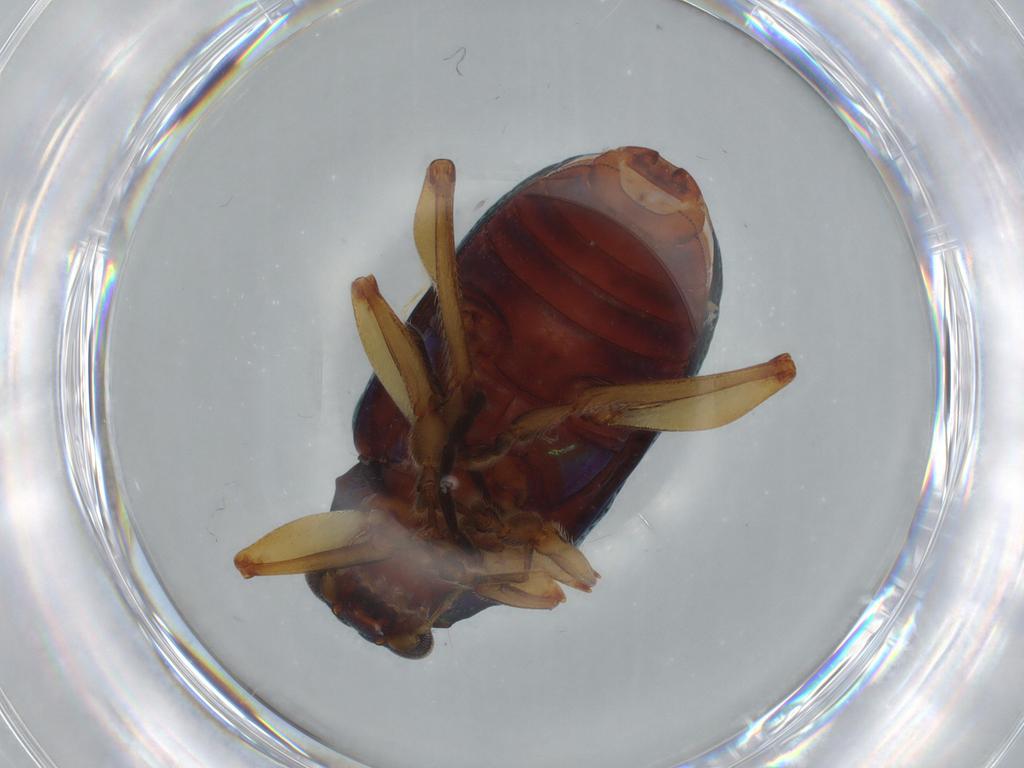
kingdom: Animalia
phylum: Arthropoda
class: Insecta
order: Coleoptera
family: Chrysomelidae
